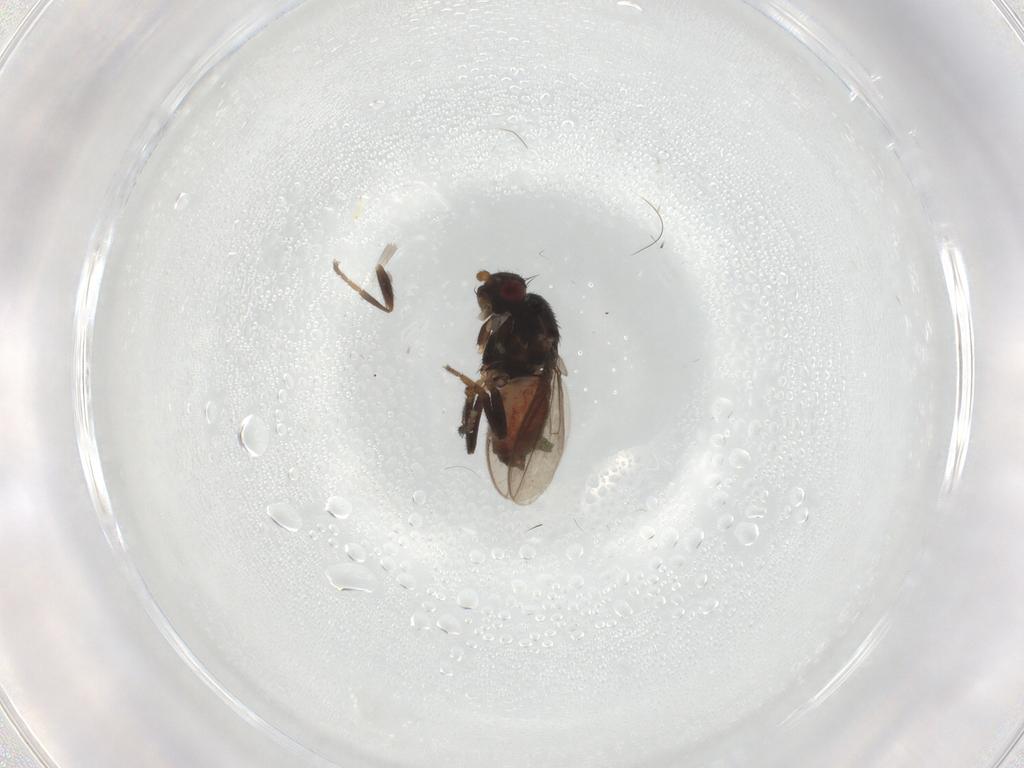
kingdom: Animalia
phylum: Arthropoda
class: Insecta
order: Diptera
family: Sphaeroceridae
